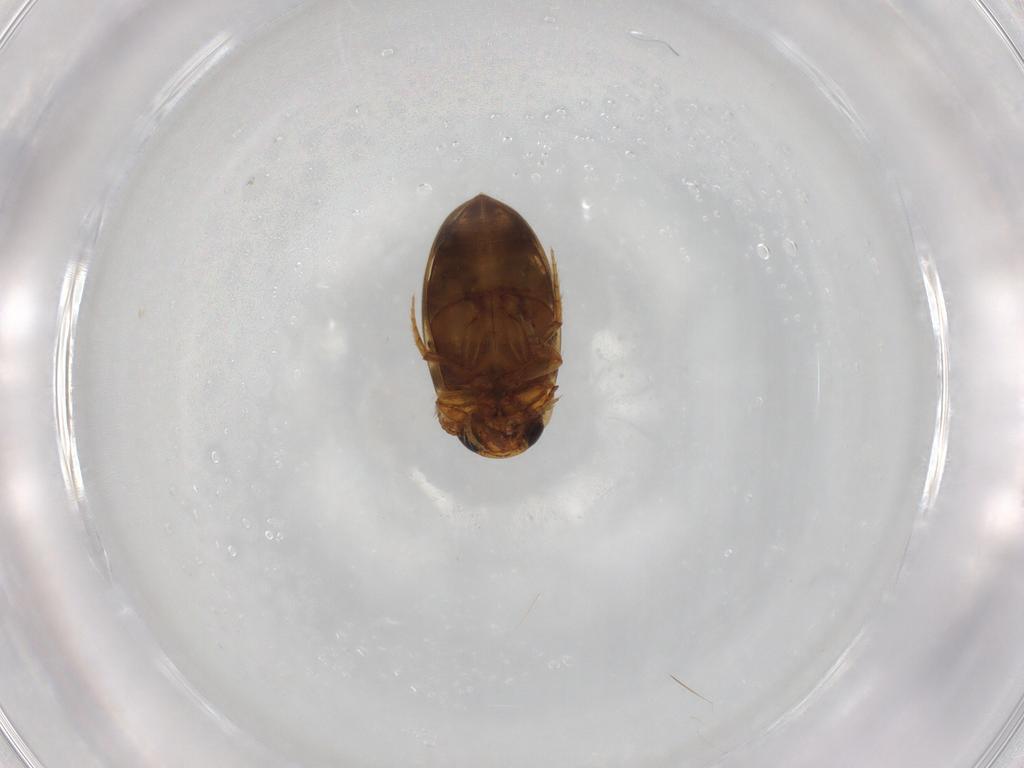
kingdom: Animalia
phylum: Arthropoda
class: Insecta
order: Coleoptera
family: Dytiscidae
